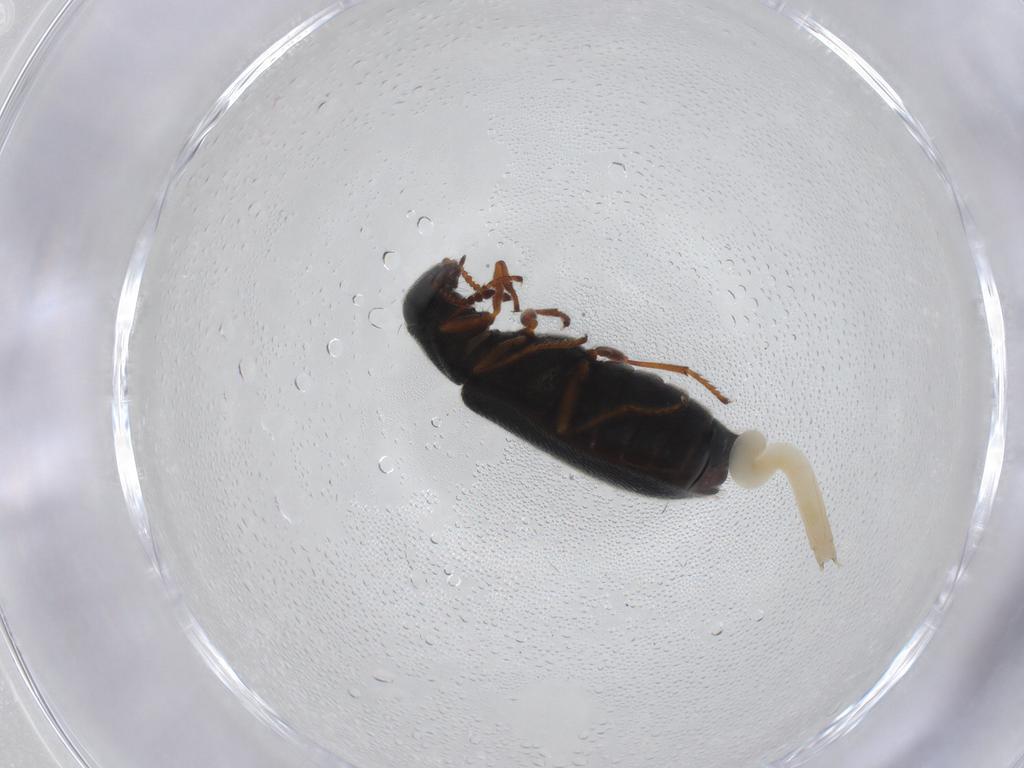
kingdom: Animalia
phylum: Arthropoda
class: Insecta
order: Coleoptera
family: Melyridae
